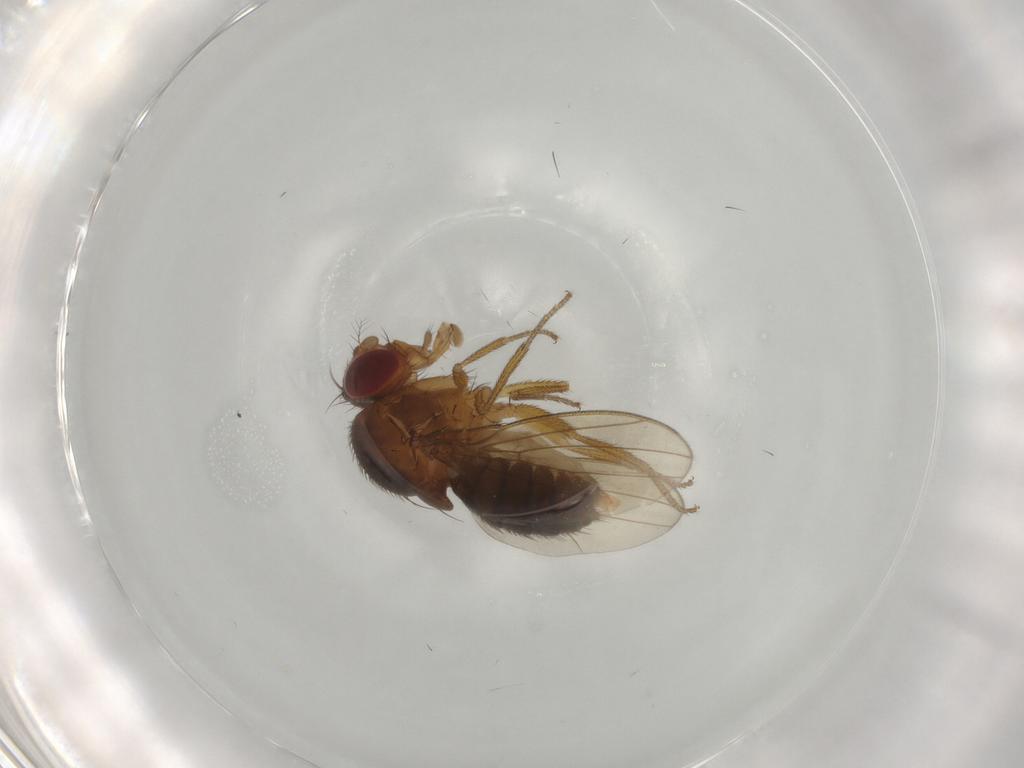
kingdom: Animalia
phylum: Arthropoda
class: Insecta
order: Diptera
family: Drosophilidae
